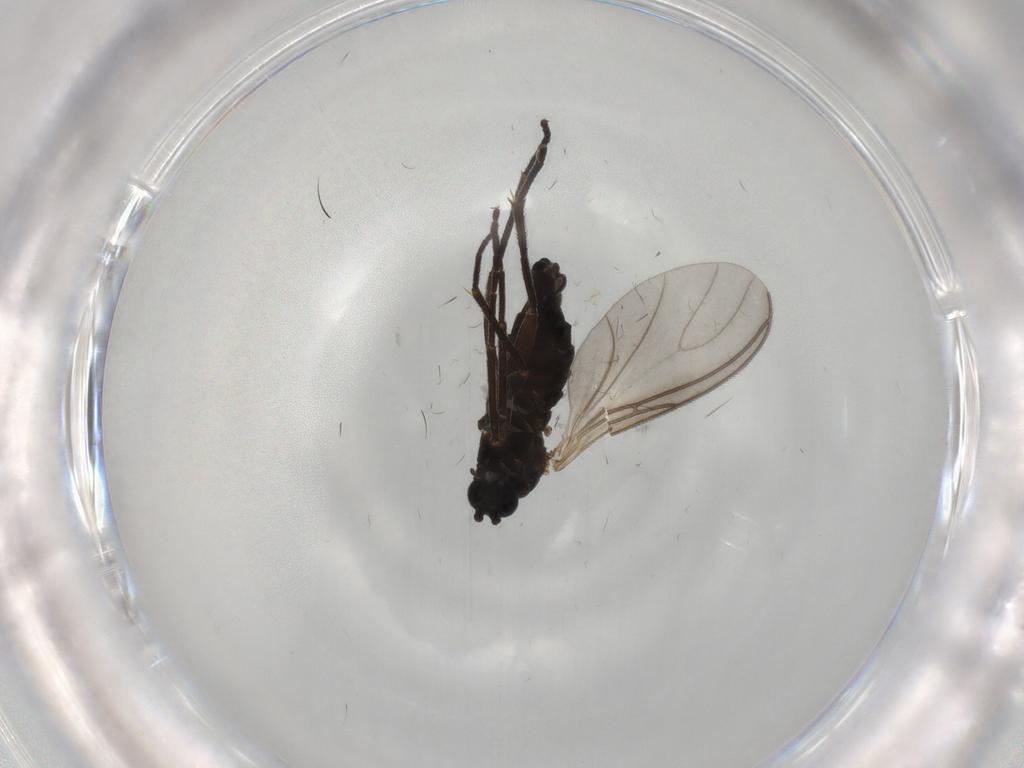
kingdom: Animalia
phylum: Arthropoda
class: Insecta
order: Diptera
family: Sciaridae
